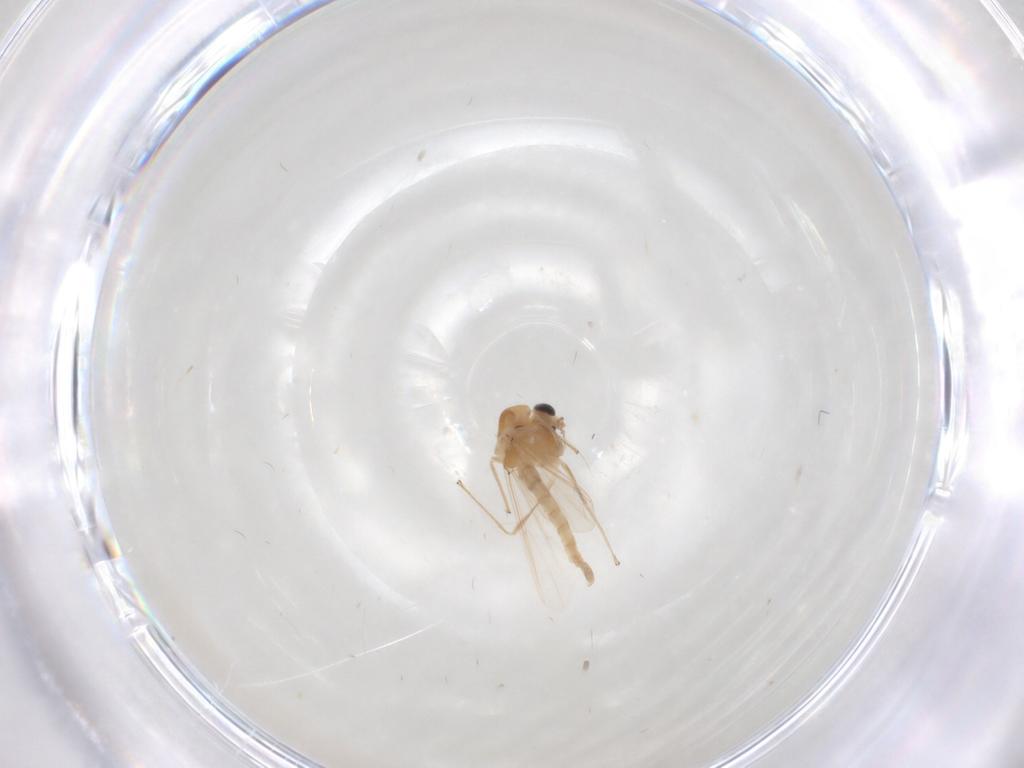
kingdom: Animalia
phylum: Arthropoda
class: Insecta
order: Diptera
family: Chironomidae
